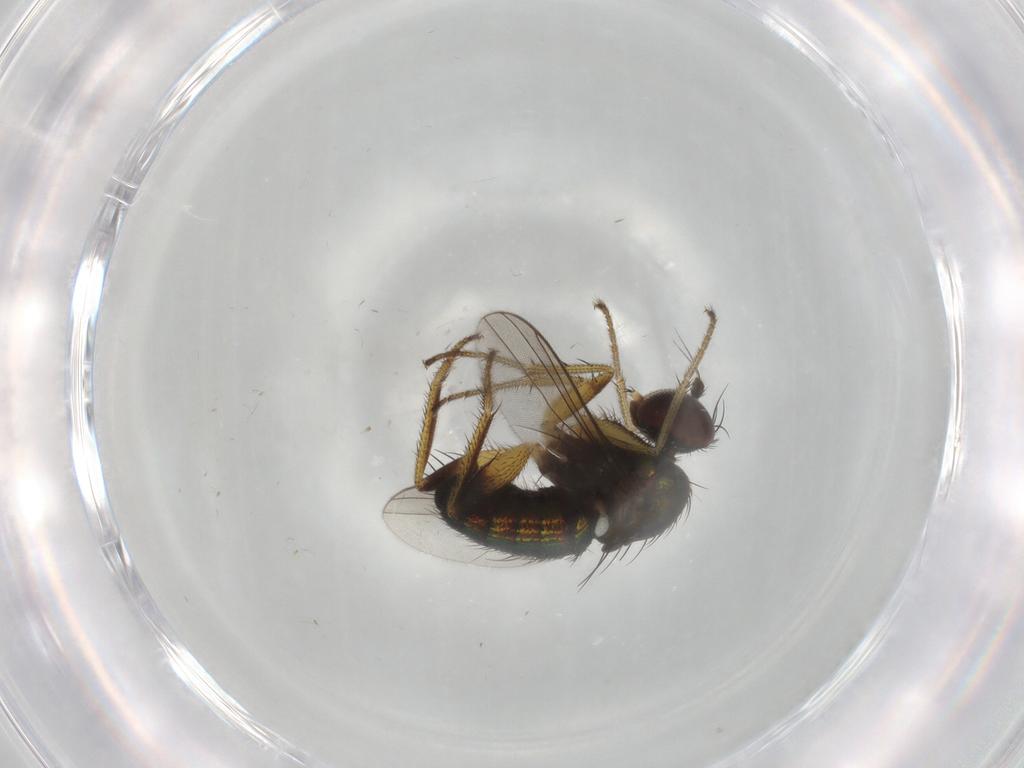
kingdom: Animalia
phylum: Arthropoda
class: Insecta
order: Diptera
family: Dolichopodidae
